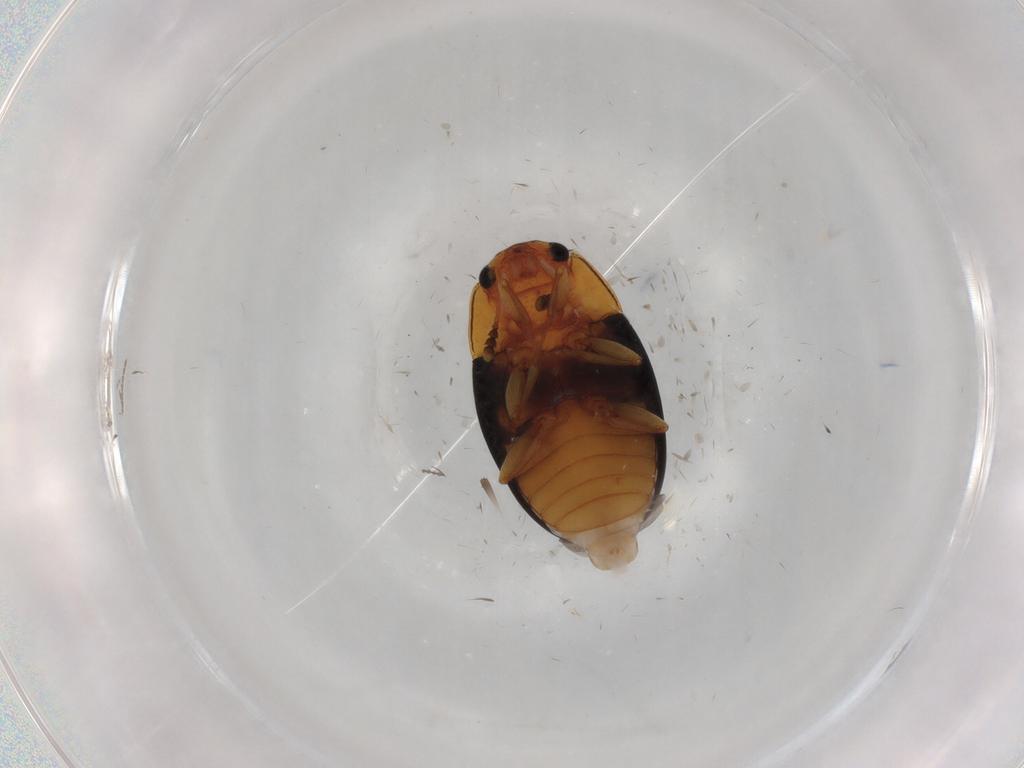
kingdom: Animalia
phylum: Arthropoda
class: Insecta
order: Coleoptera
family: Erotylidae
